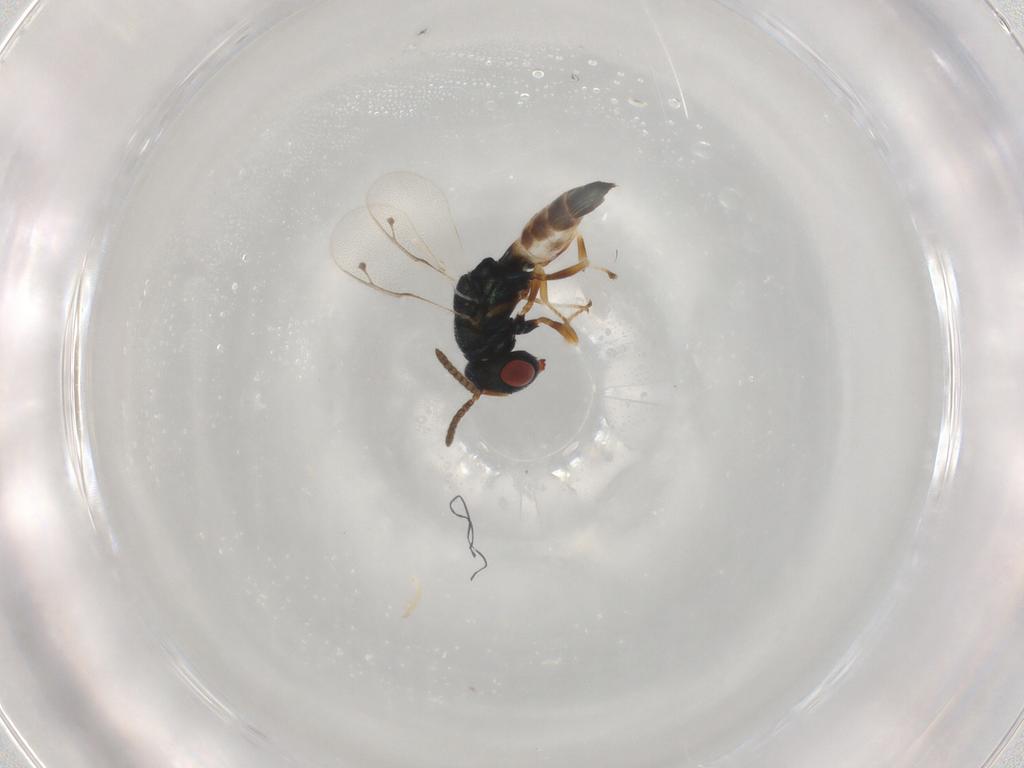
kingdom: Animalia
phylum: Arthropoda
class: Insecta
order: Hymenoptera
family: Pteromalidae
